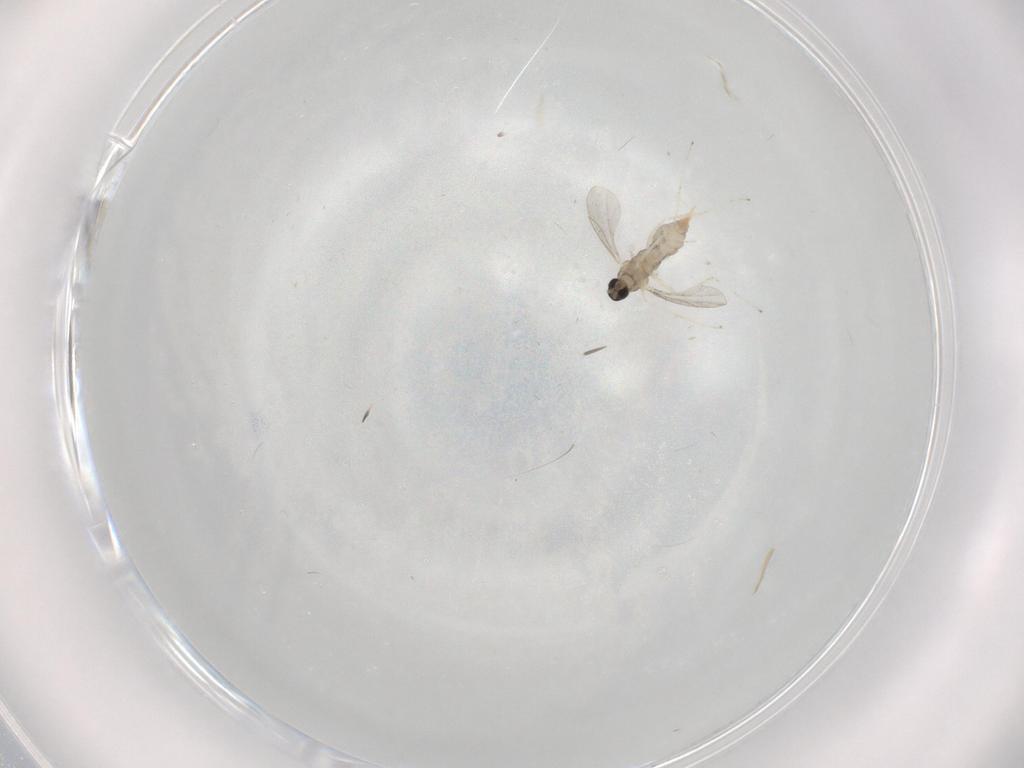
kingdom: Animalia
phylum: Arthropoda
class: Insecta
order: Diptera
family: Cecidomyiidae
